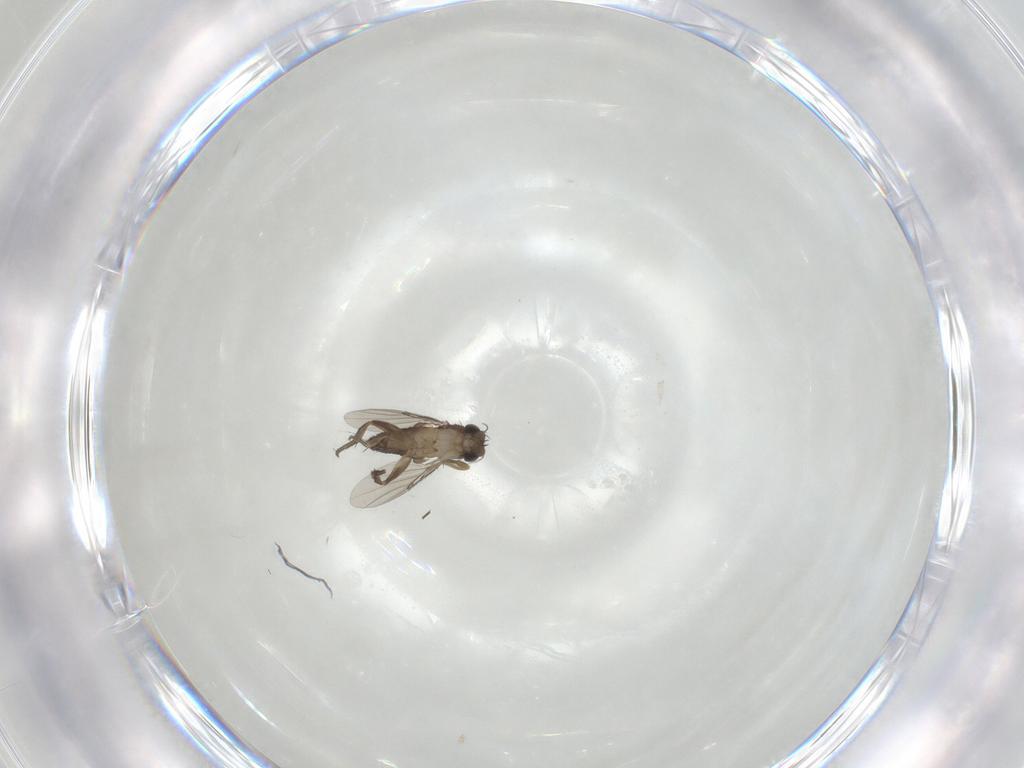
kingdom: Animalia
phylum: Arthropoda
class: Insecta
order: Diptera
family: Phoridae
